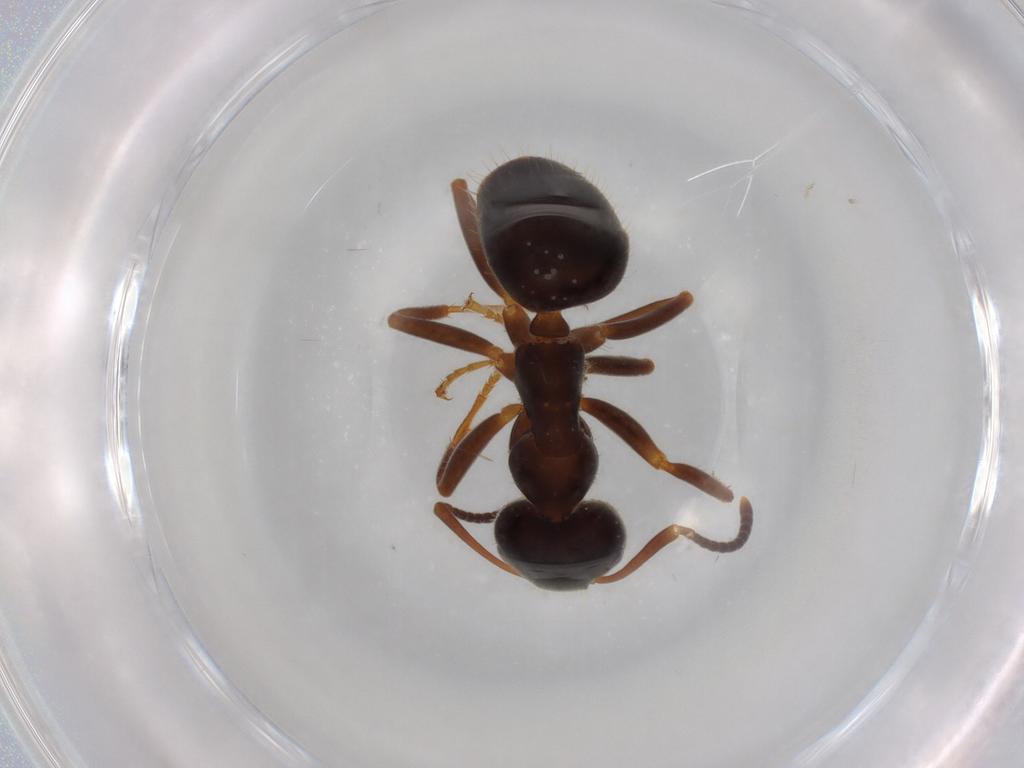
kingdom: Animalia
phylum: Arthropoda
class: Insecta
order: Hymenoptera
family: Formicidae
